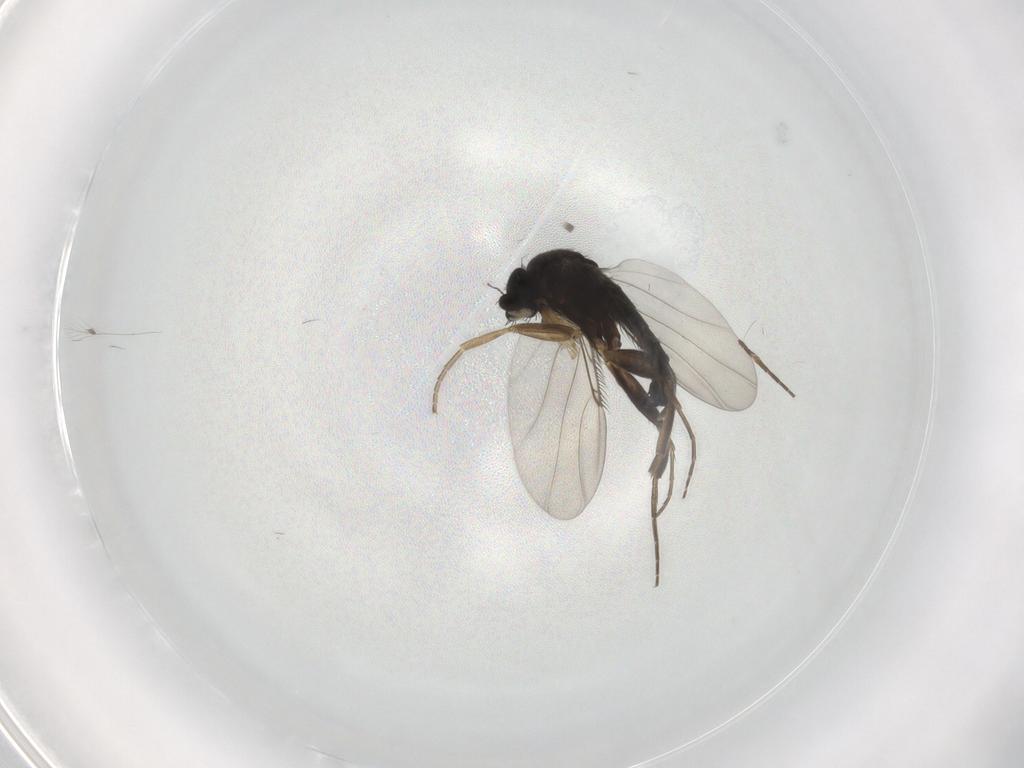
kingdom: Animalia
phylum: Arthropoda
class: Insecta
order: Diptera
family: Phoridae
